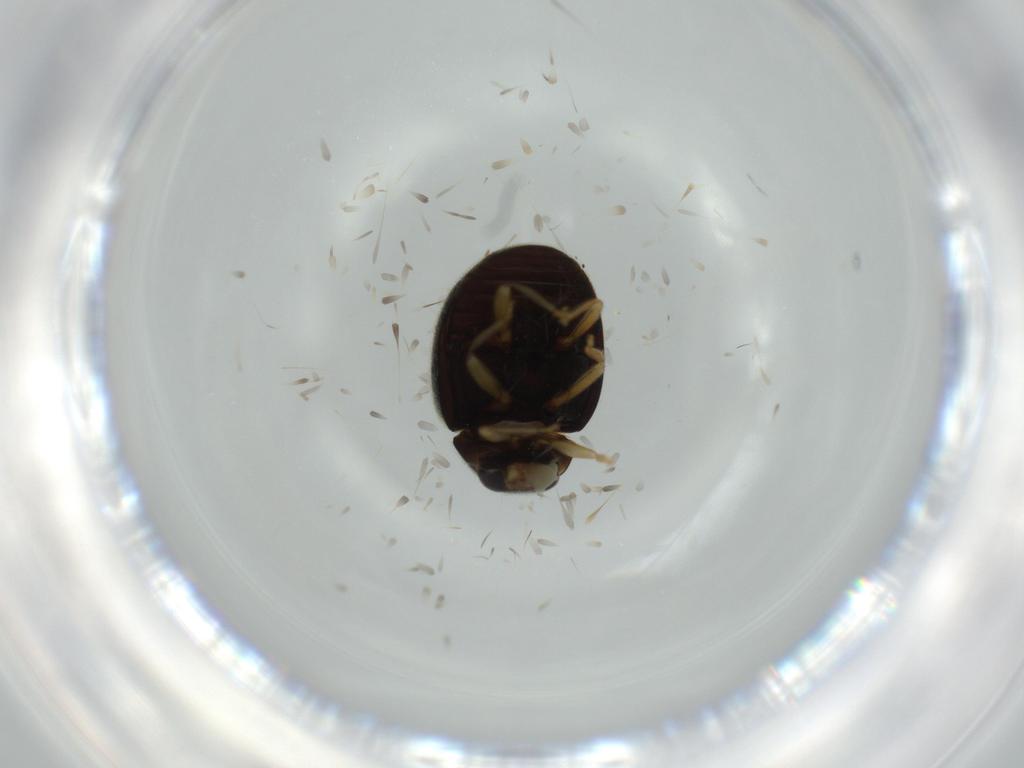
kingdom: Animalia
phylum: Arthropoda
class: Insecta
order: Coleoptera
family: Coccinellidae
